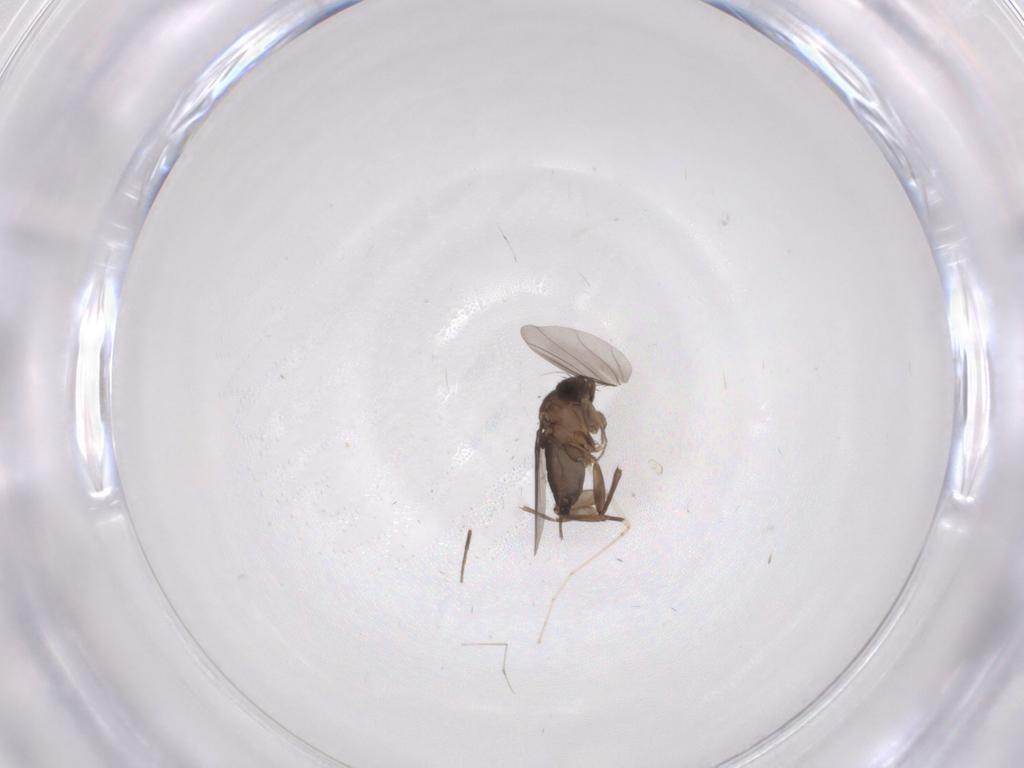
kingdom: Animalia
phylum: Arthropoda
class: Insecta
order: Diptera
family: Phoridae
